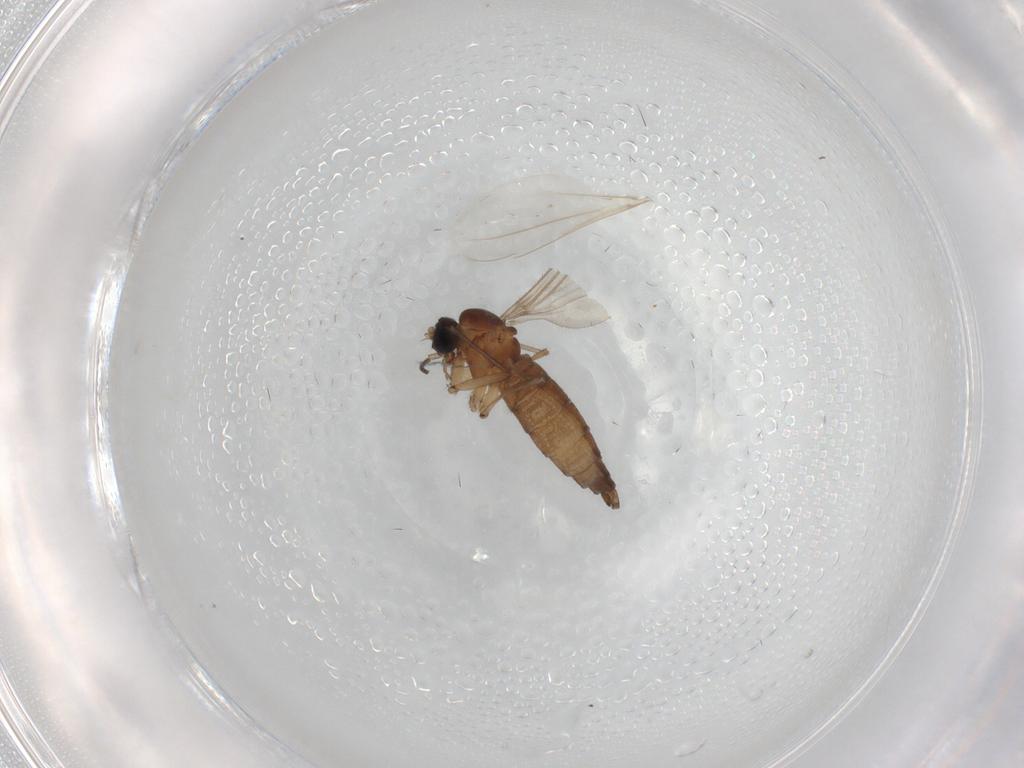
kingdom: Animalia
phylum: Arthropoda
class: Insecta
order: Diptera
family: Sciaridae
